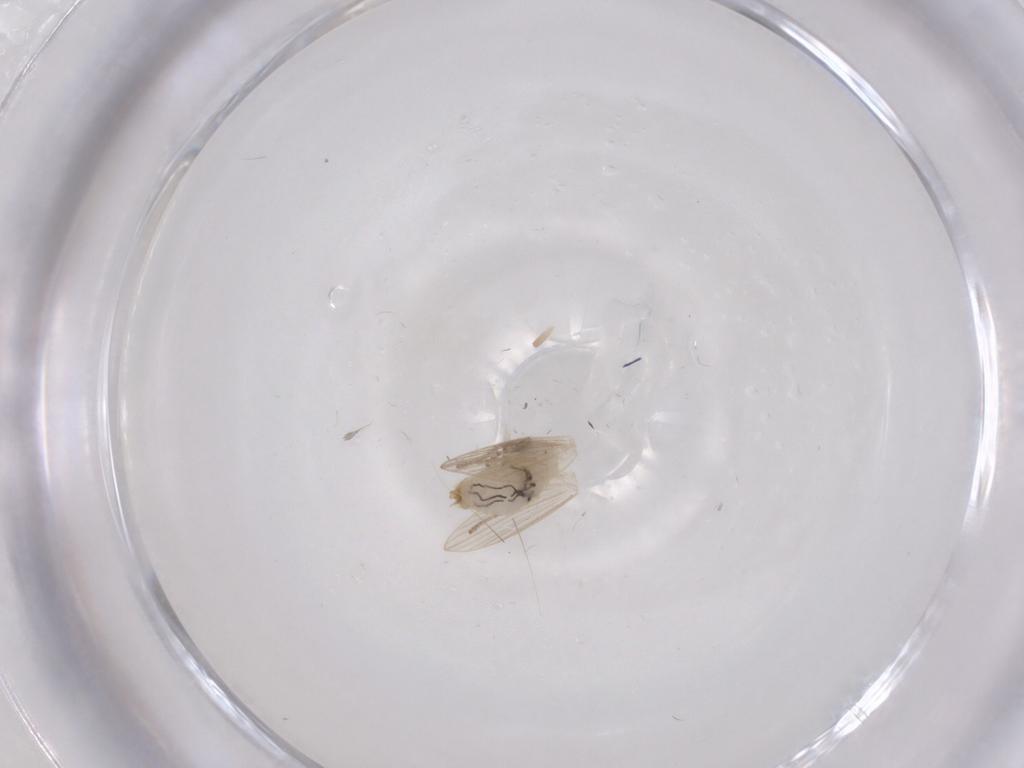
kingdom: Animalia
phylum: Arthropoda
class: Insecta
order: Diptera
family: Psychodidae
